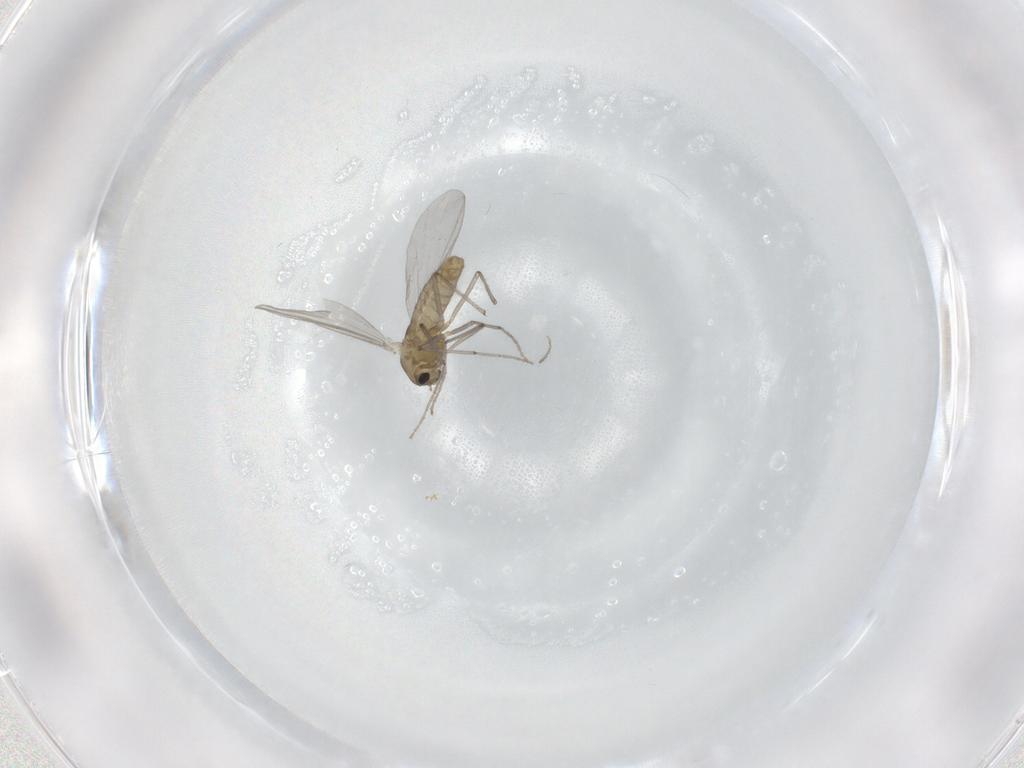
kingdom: Animalia
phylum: Arthropoda
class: Insecta
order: Diptera
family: Chironomidae
